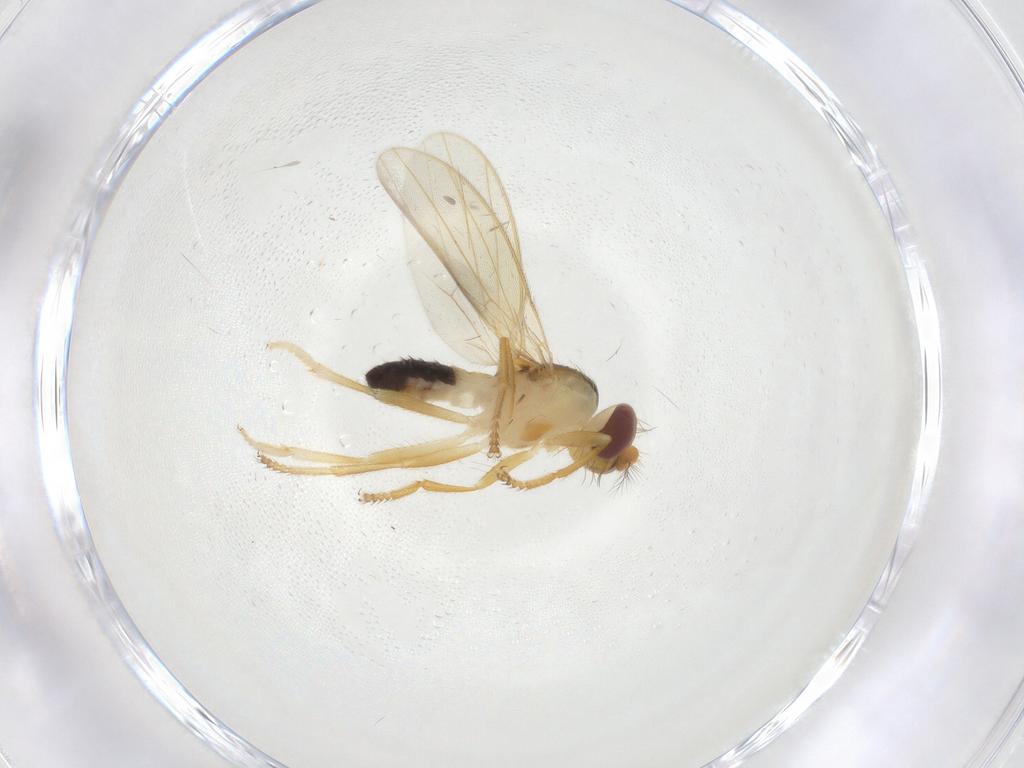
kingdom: Animalia
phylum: Arthropoda
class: Insecta
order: Diptera
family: Periscelididae
